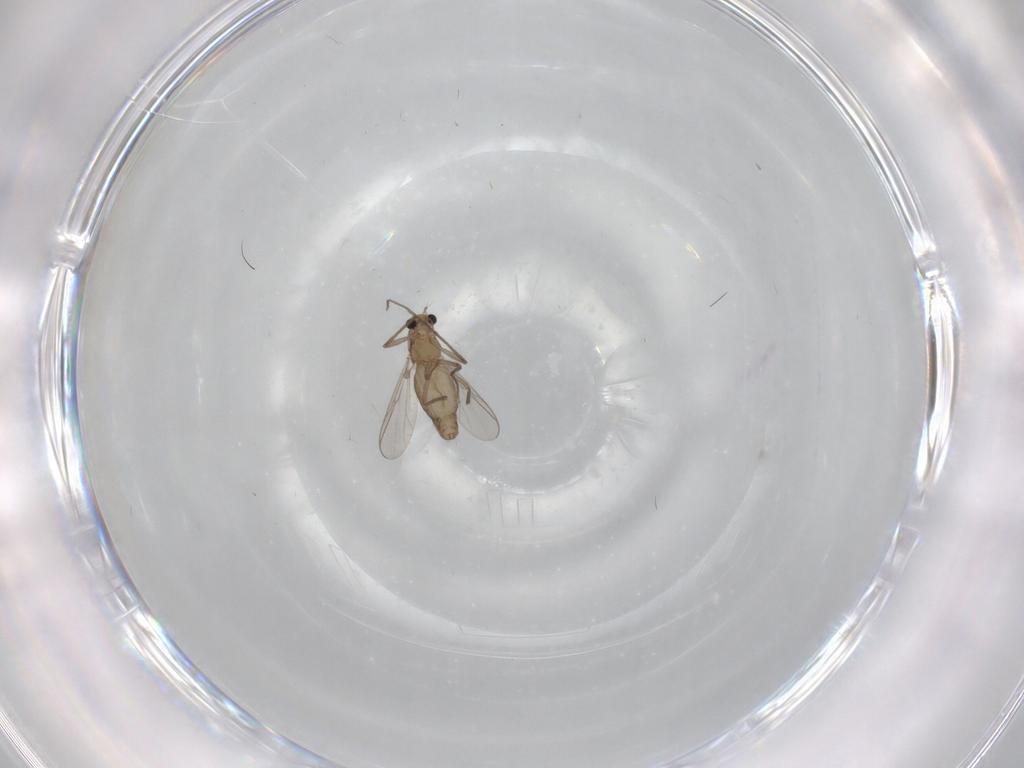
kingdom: Animalia
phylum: Arthropoda
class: Insecta
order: Diptera
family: Chironomidae
